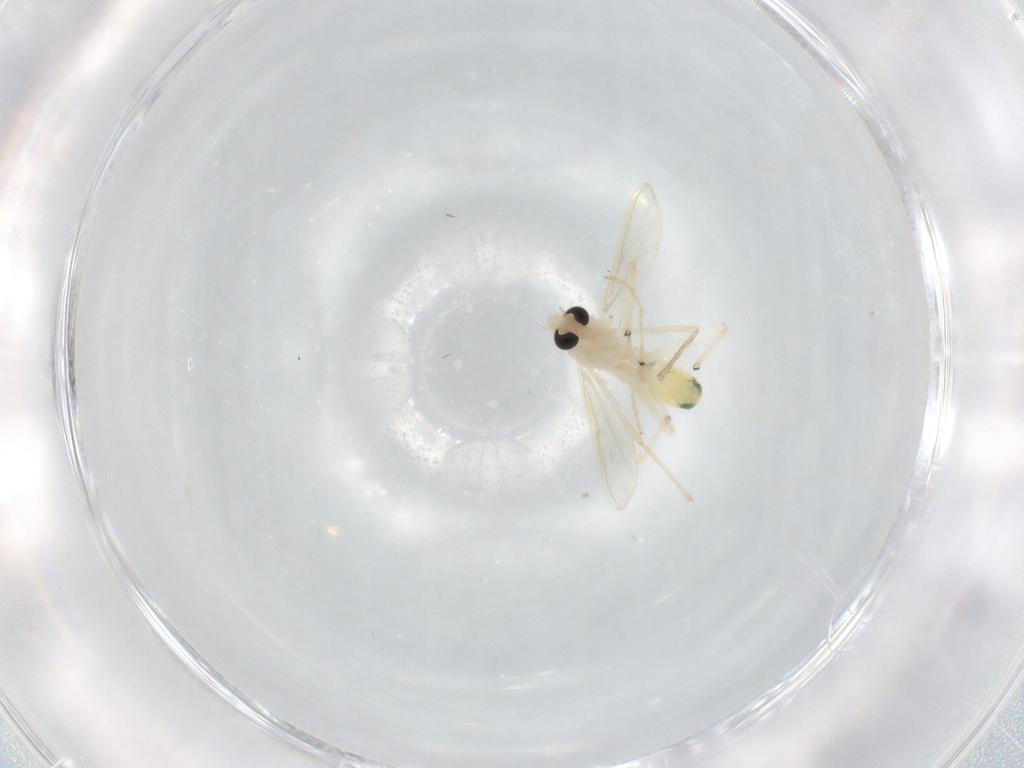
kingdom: Animalia
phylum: Arthropoda
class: Insecta
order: Diptera
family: Chironomidae
